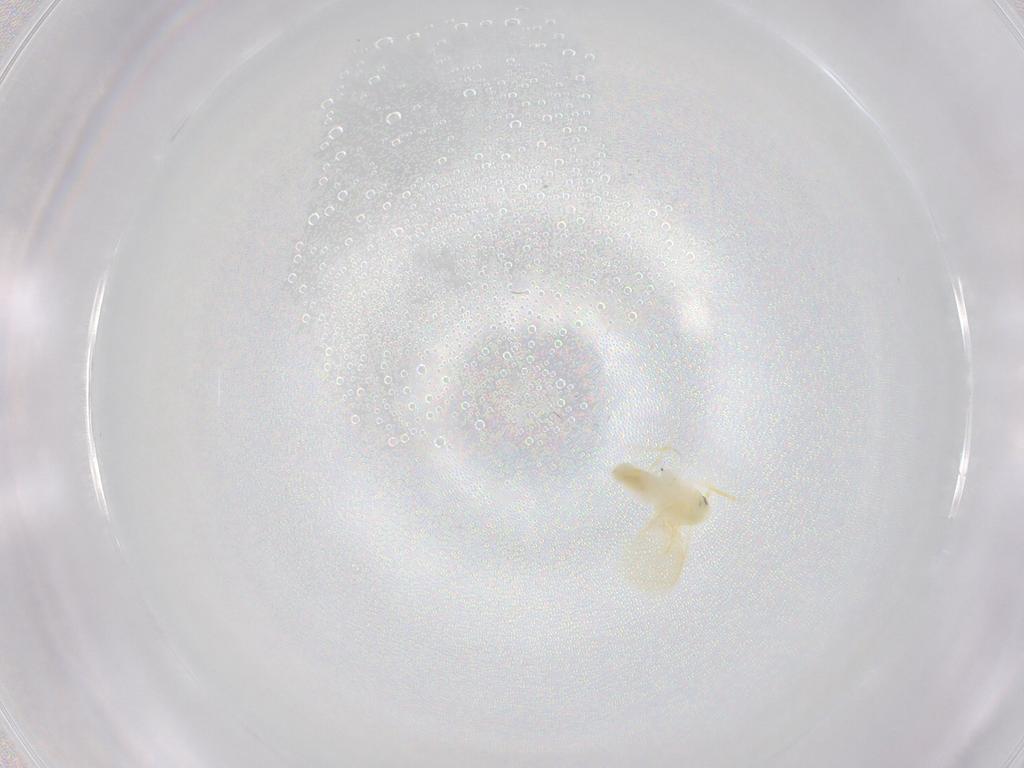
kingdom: Animalia
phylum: Arthropoda
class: Insecta
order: Hemiptera
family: Aleyrodidae
